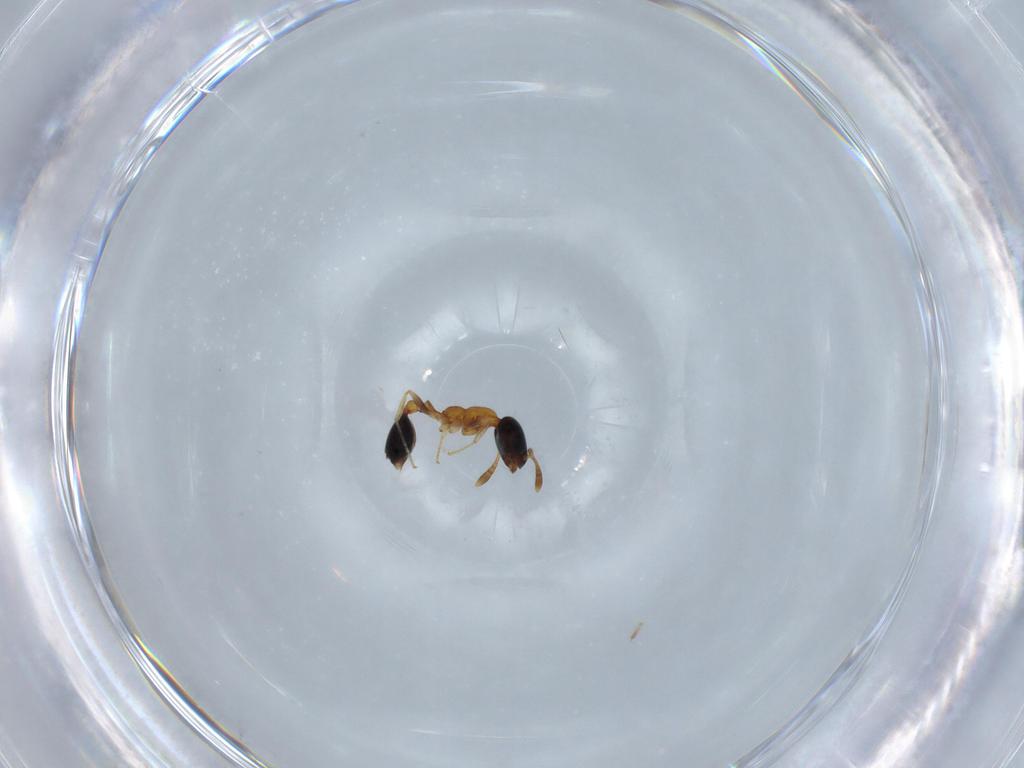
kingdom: Animalia
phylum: Arthropoda
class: Insecta
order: Hymenoptera
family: Formicidae
